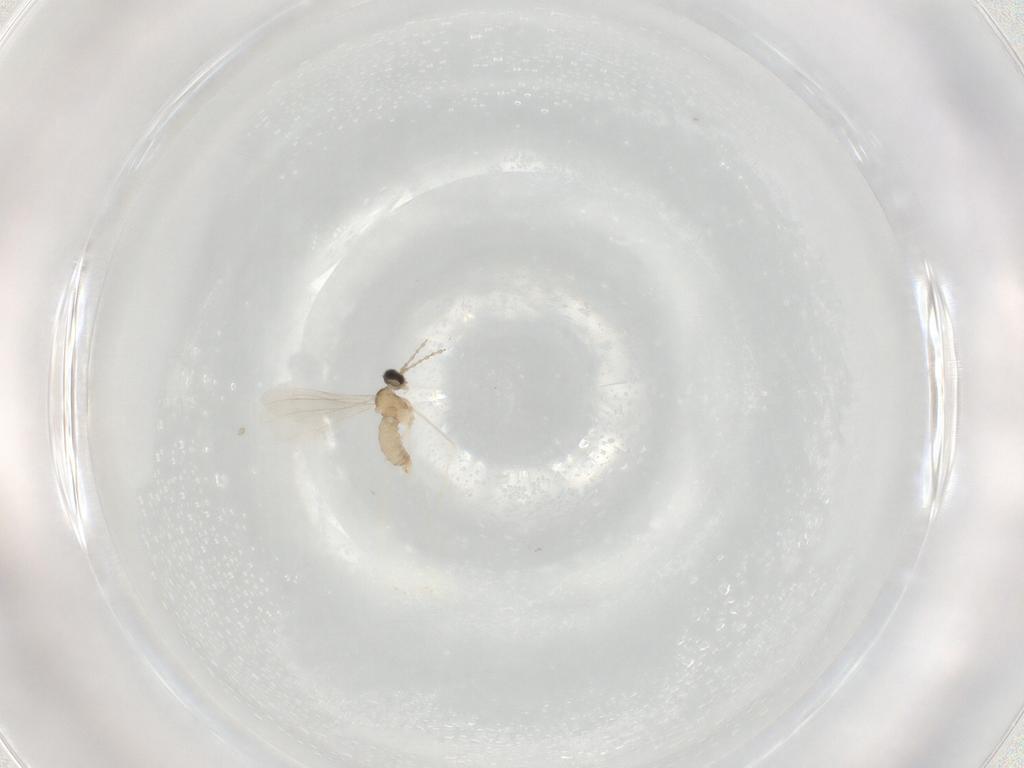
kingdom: Animalia
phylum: Arthropoda
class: Insecta
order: Diptera
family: Cecidomyiidae
